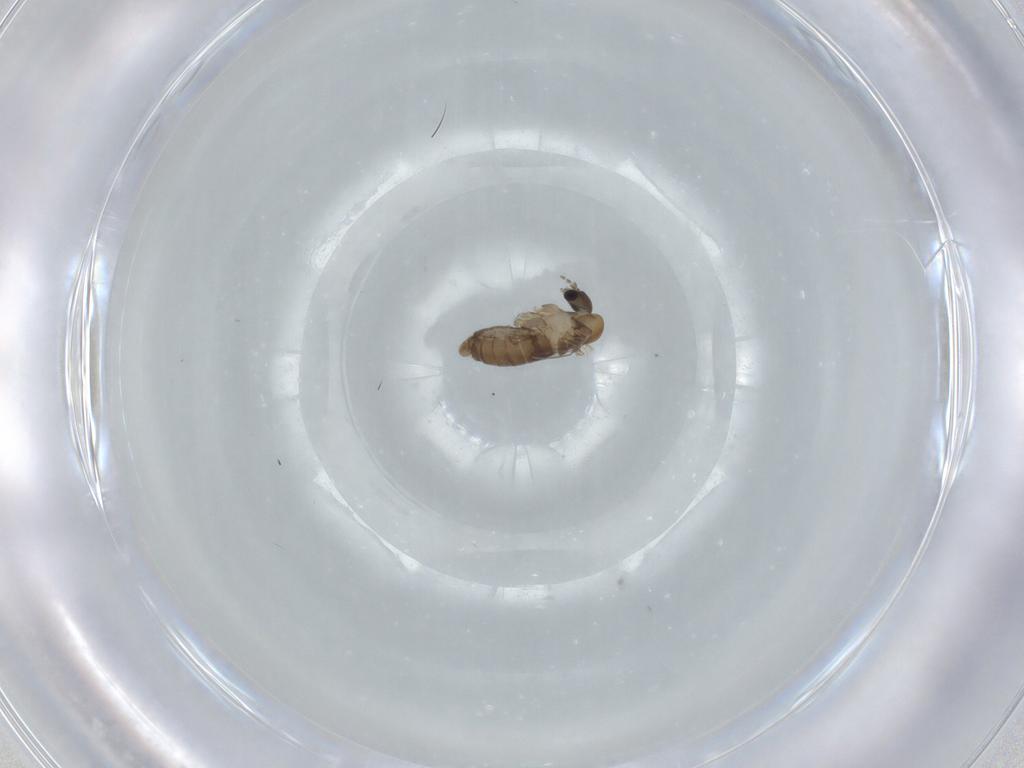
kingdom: Animalia
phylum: Arthropoda
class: Insecta
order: Diptera
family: Psychodidae
